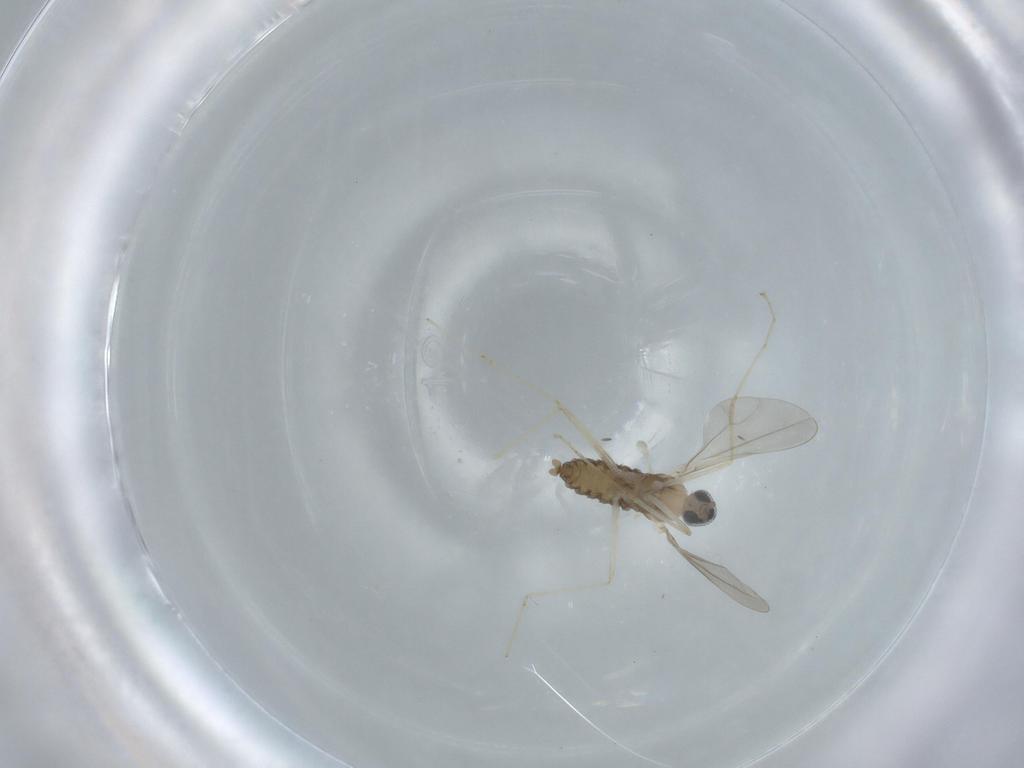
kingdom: Animalia
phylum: Arthropoda
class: Insecta
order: Diptera
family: Cecidomyiidae
